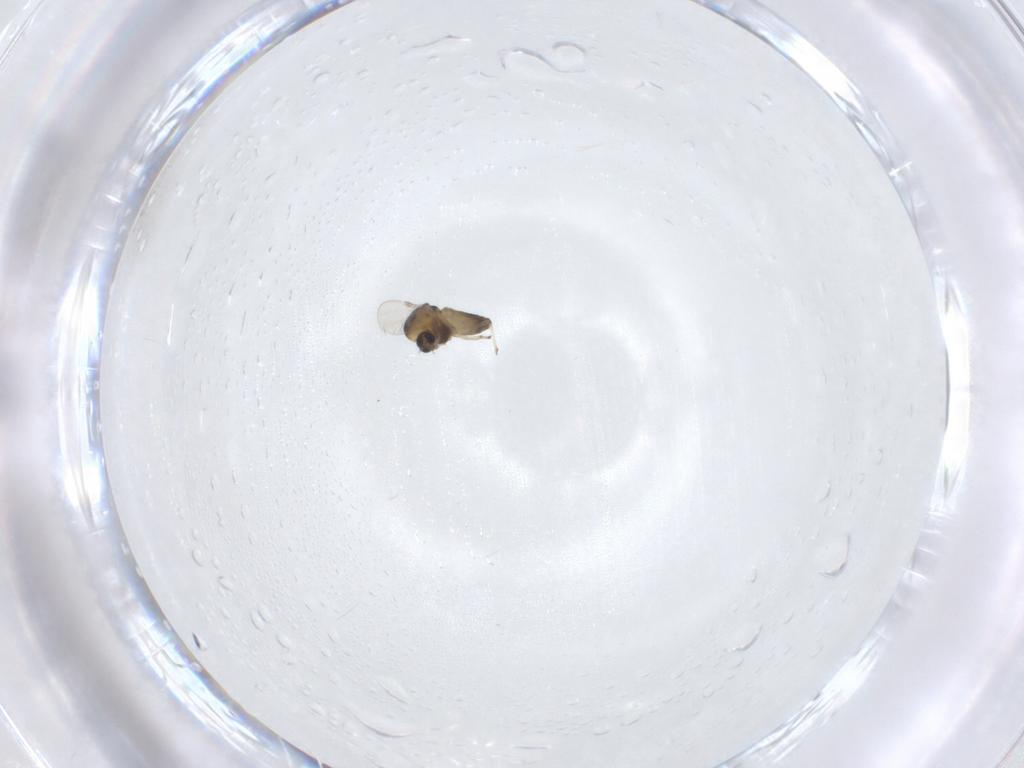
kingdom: Animalia
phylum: Arthropoda
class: Insecta
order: Diptera
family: Chironomidae
